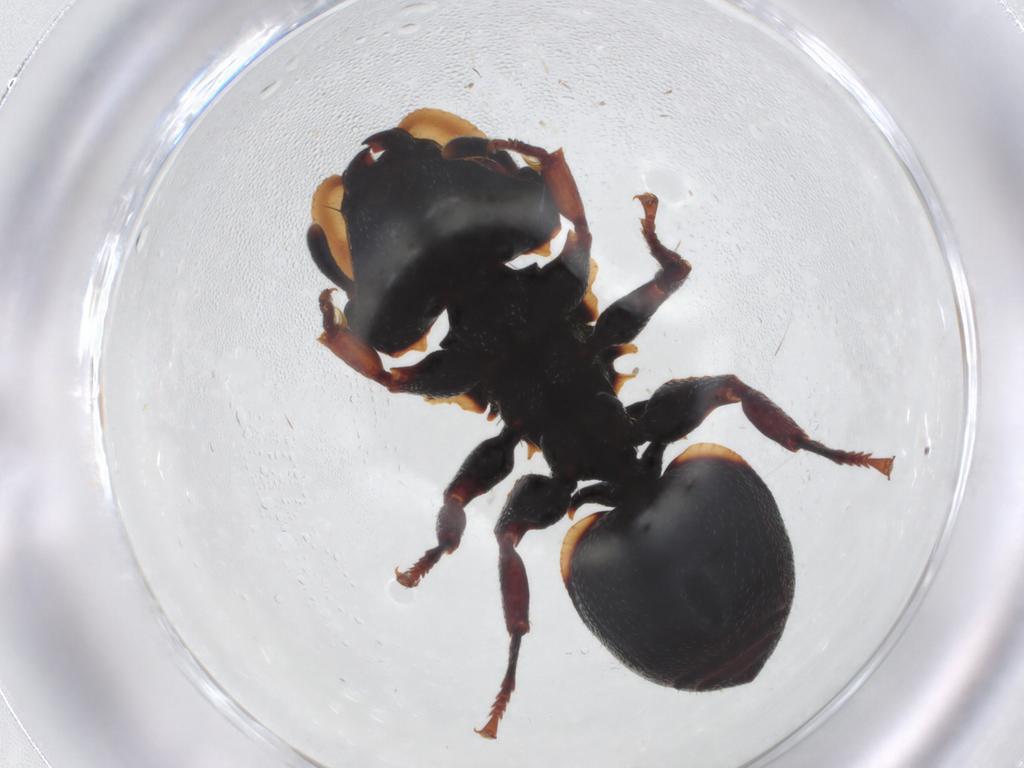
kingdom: Animalia
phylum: Arthropoda
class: Insecta
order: Hymenoptera
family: Formicidae
